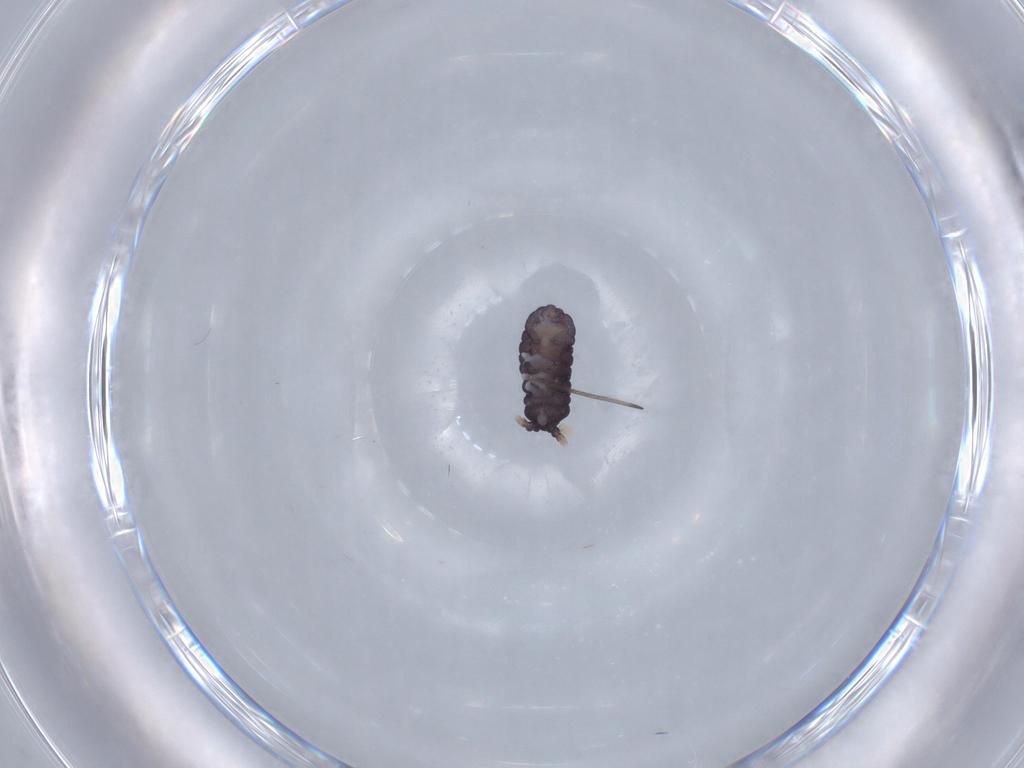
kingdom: Animalia
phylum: Arthropoda
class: Collembola
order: Poduromorpha
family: Neanuridae
